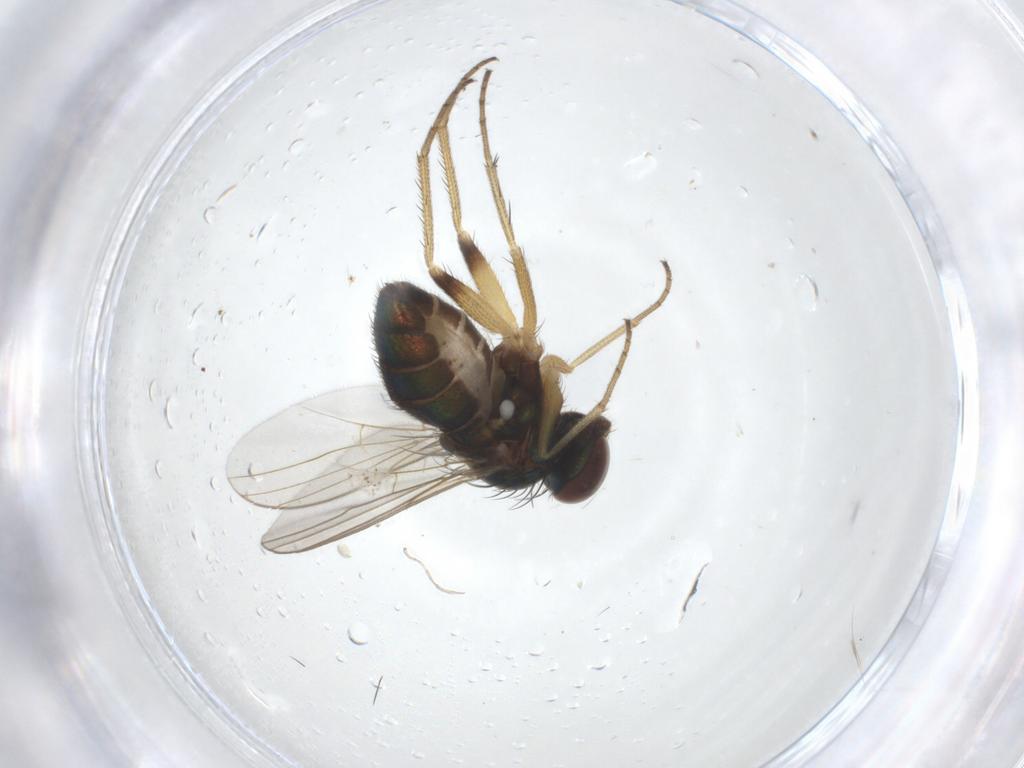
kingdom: Animalia
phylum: Arthropoda
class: Insecta
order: Diptera
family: Dolichopodidae
